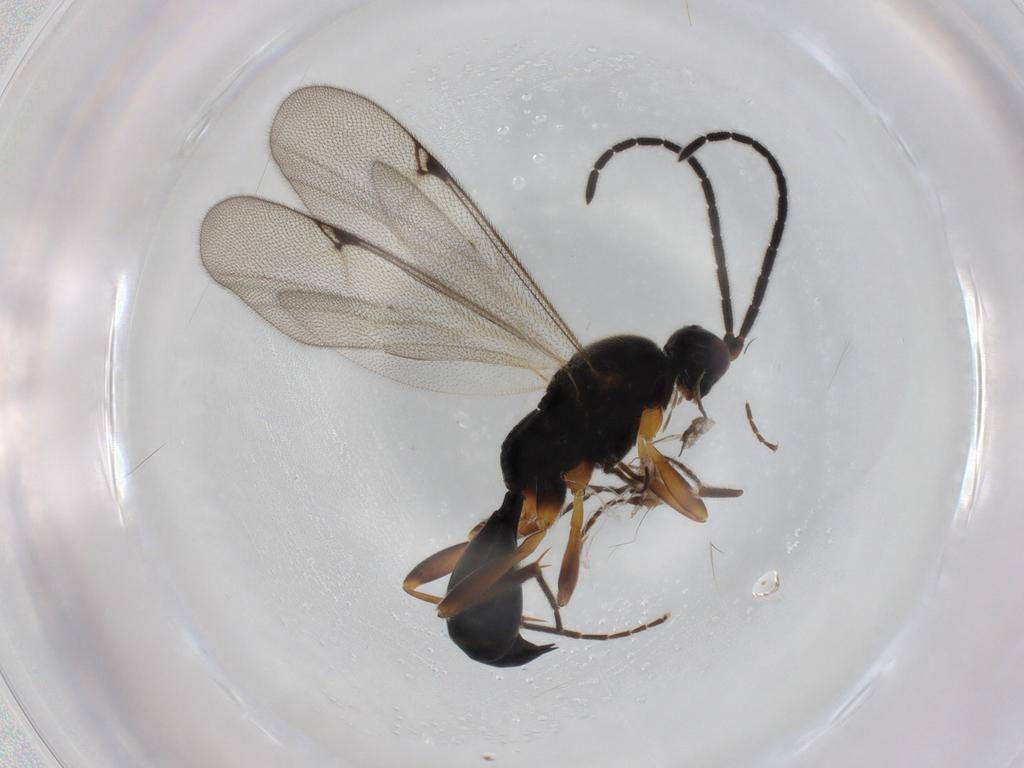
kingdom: Animalia
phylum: Arthropoda
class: Insecta
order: Hymenoptera
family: Proctotrupidae
